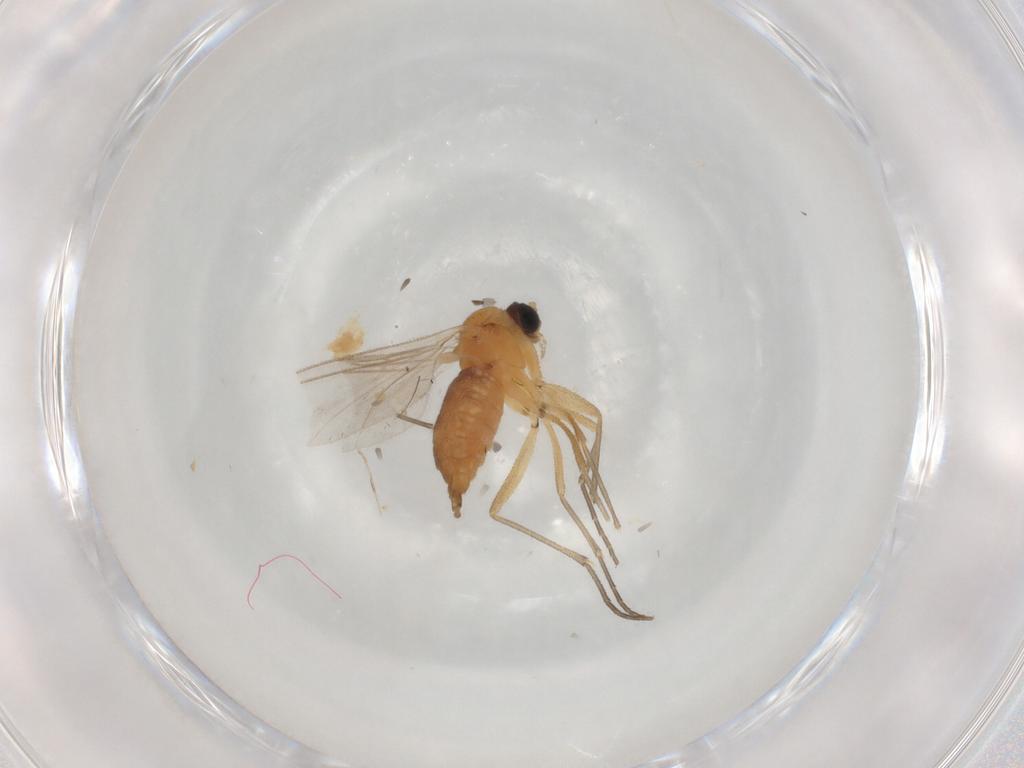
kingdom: Animalia
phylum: Arthropoda
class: Insecta
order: Diptera
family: Sciaridae
